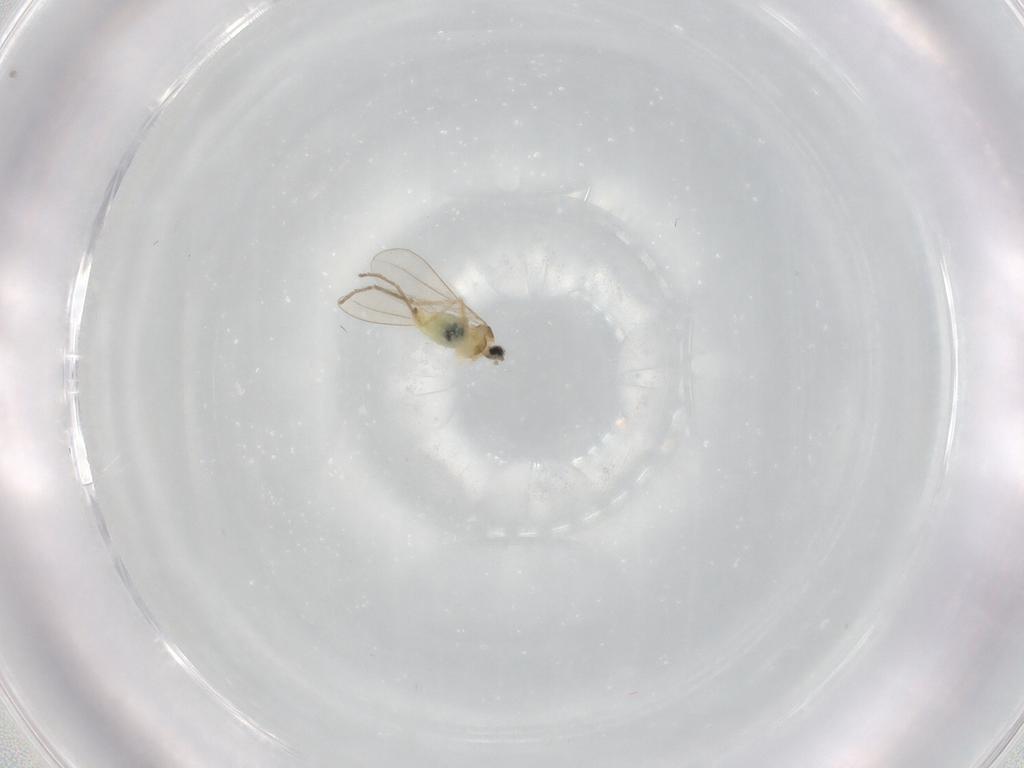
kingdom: Animalia
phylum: Arthropoda
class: Insecta
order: Diptera
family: Cecidomyiidae
